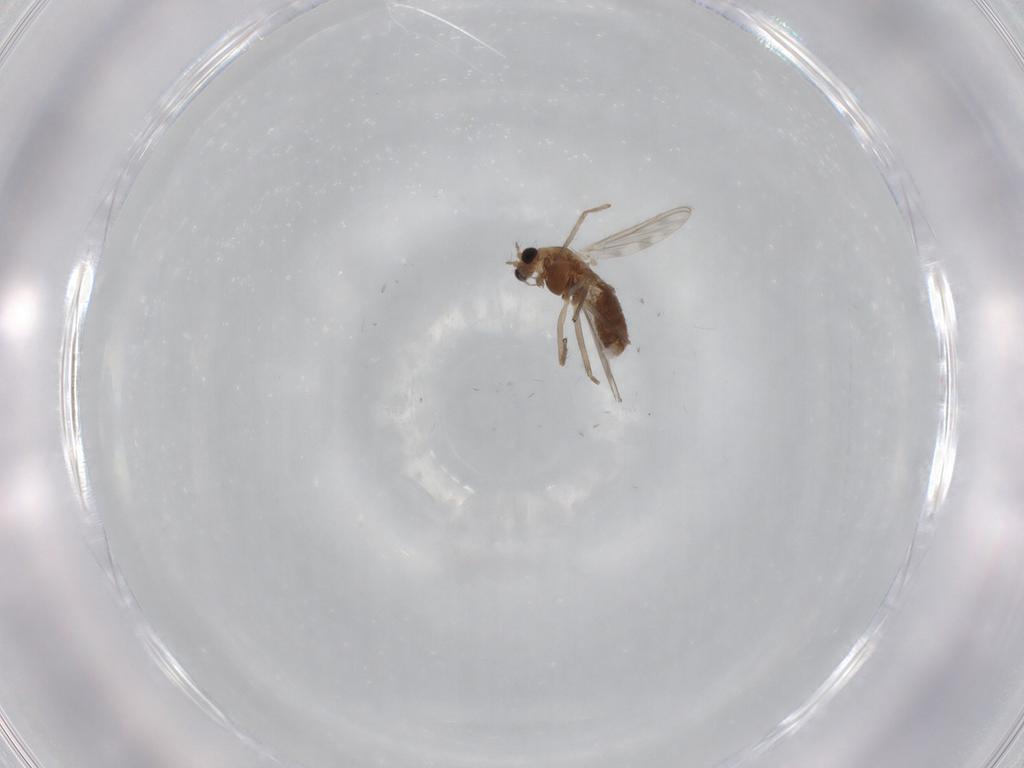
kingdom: Animalia
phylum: Arthropoda
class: Insecta
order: Diptera
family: Chironomidae
